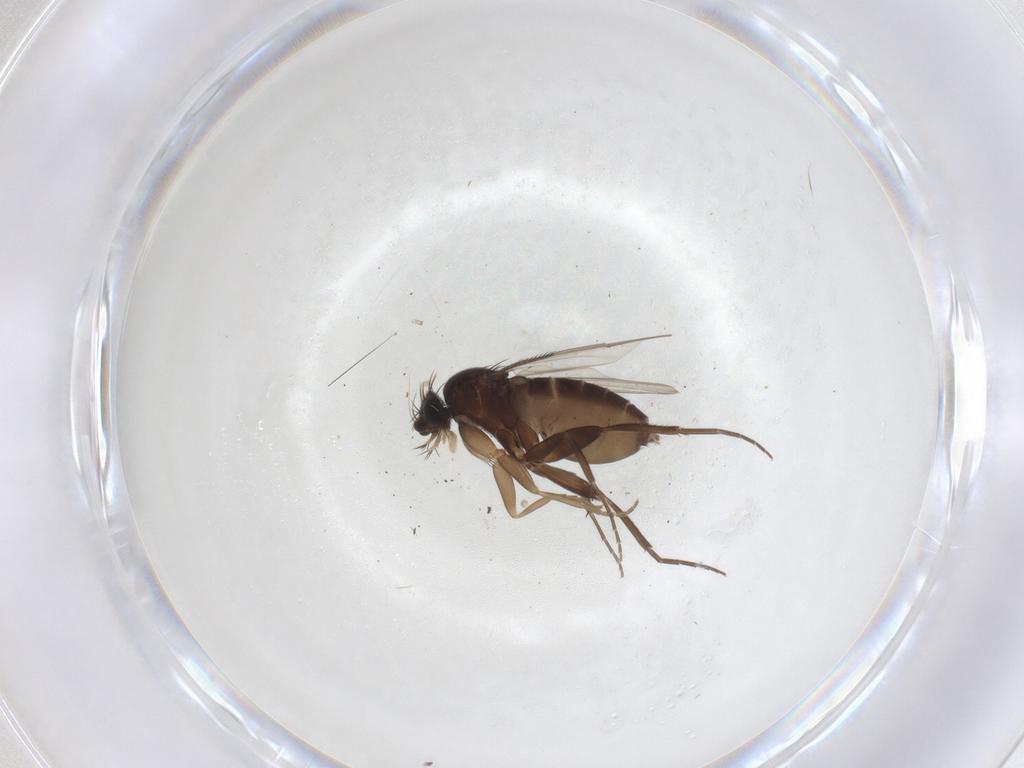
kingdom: Animalia
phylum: Arthropoda
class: Insecta
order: Diptera
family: Phoridae
